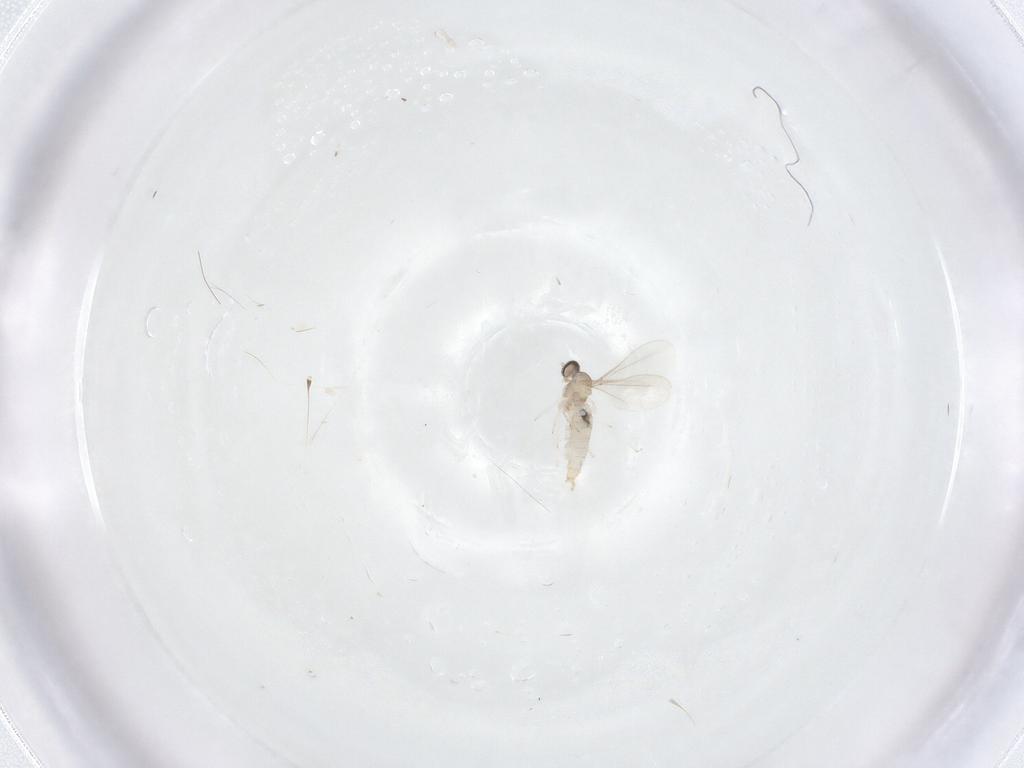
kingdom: Animalia
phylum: Arthropoda
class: Insecta
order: Diptera
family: Cecidomyiidae
